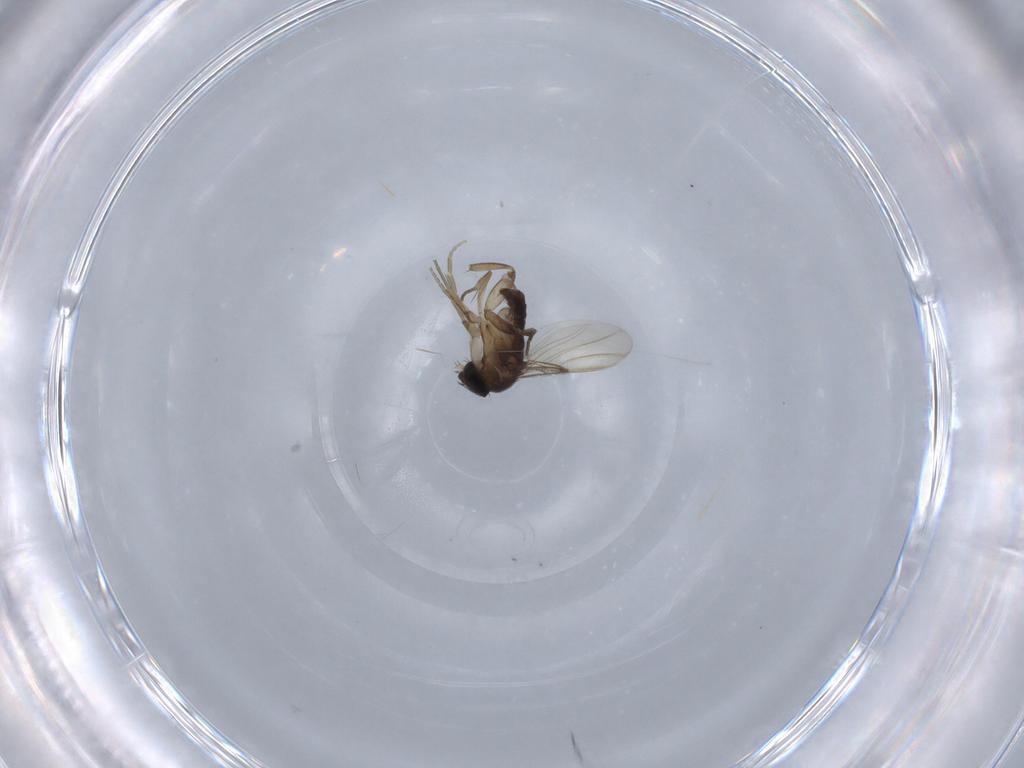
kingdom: Animalia
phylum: Arthropoda
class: Insecta
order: Diptera
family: Phoridae
